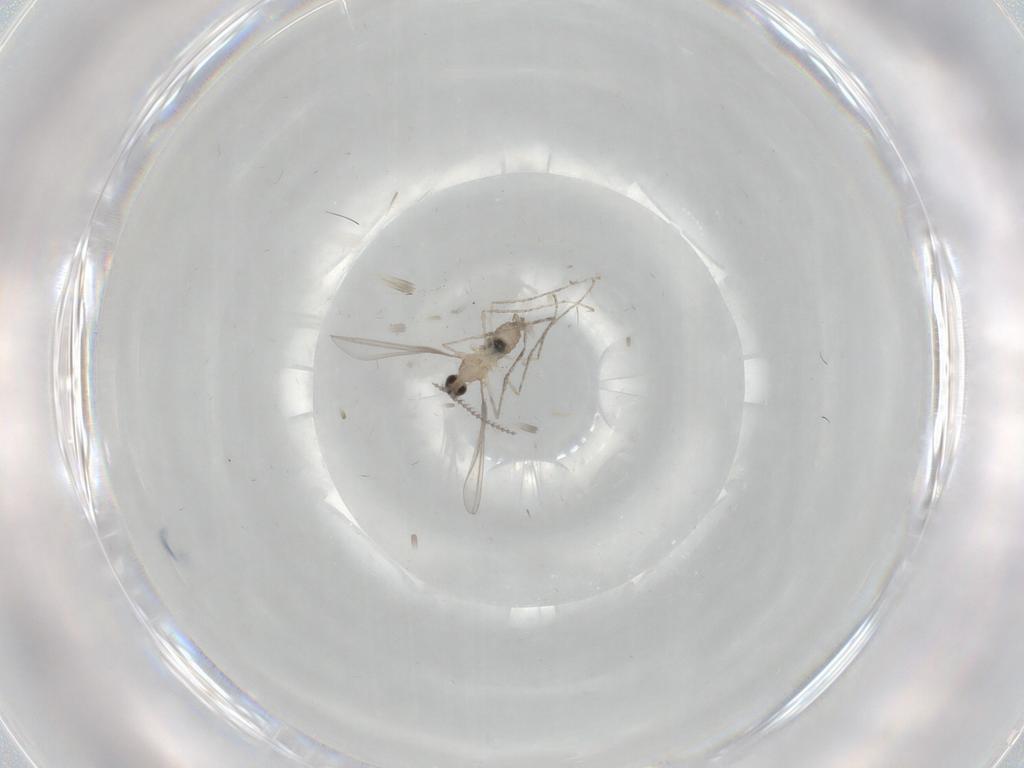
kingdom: Animalia
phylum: Arthropoda
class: Insecta
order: Diptera
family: Cecidomyiidae
